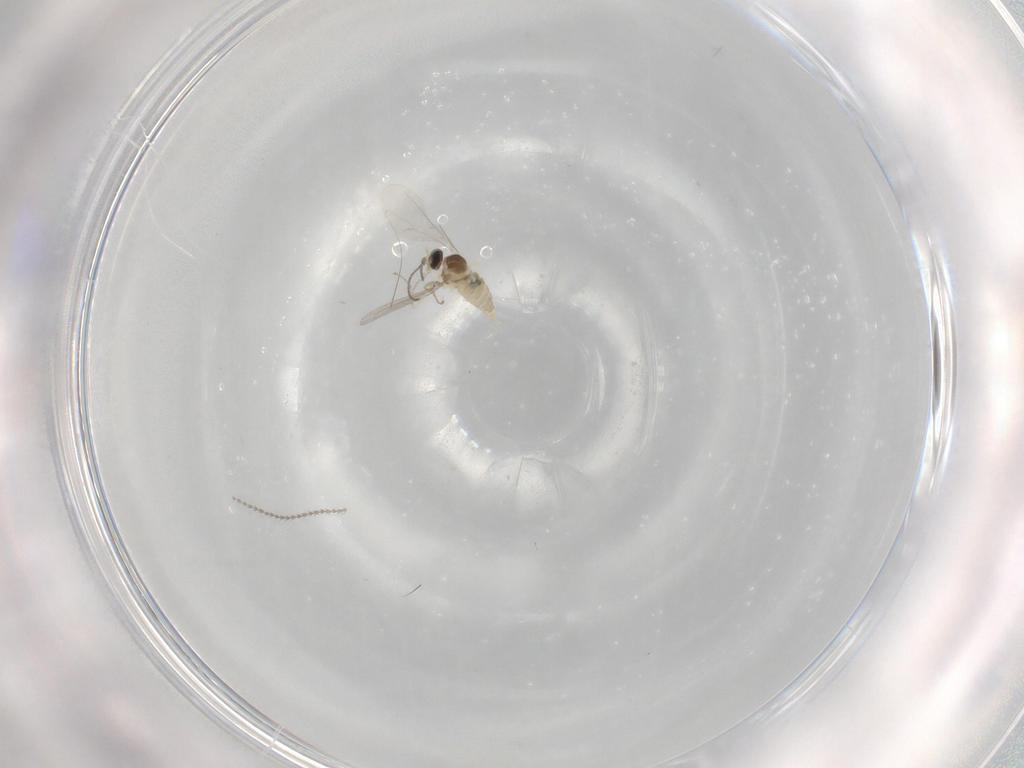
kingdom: Animalia
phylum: Arthropoda
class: Insecta
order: Diptera
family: Cecidomyiidae
